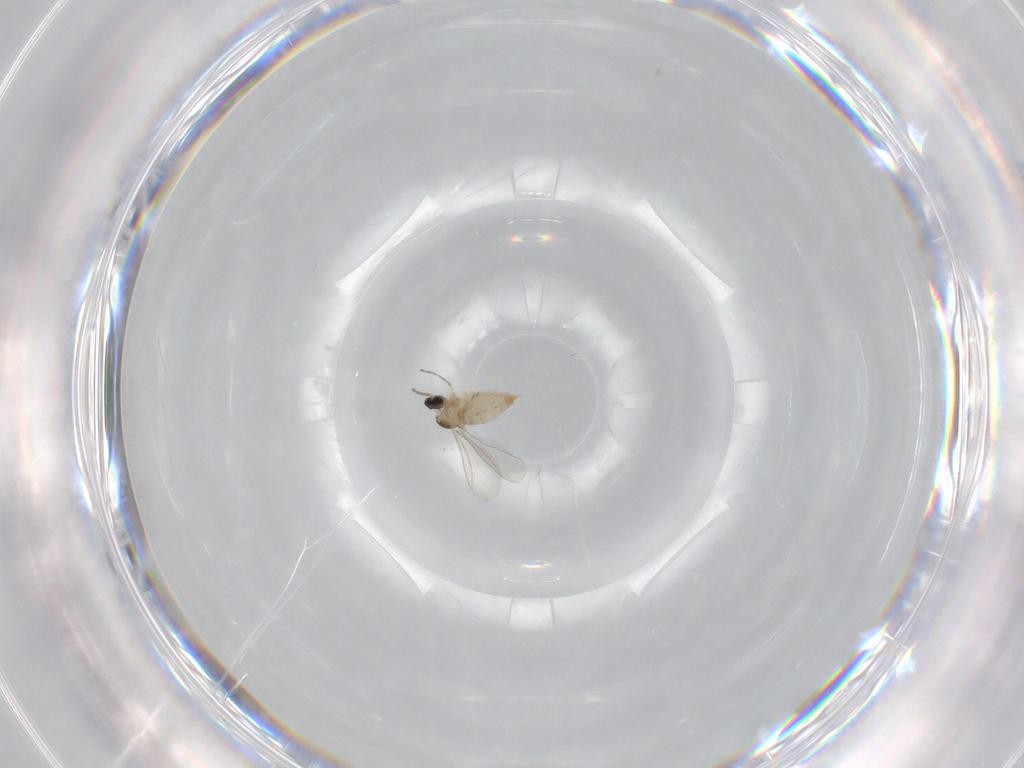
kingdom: Animalia
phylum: Arthropoda
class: Insecta
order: Diptera
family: Cecidomyiidae
